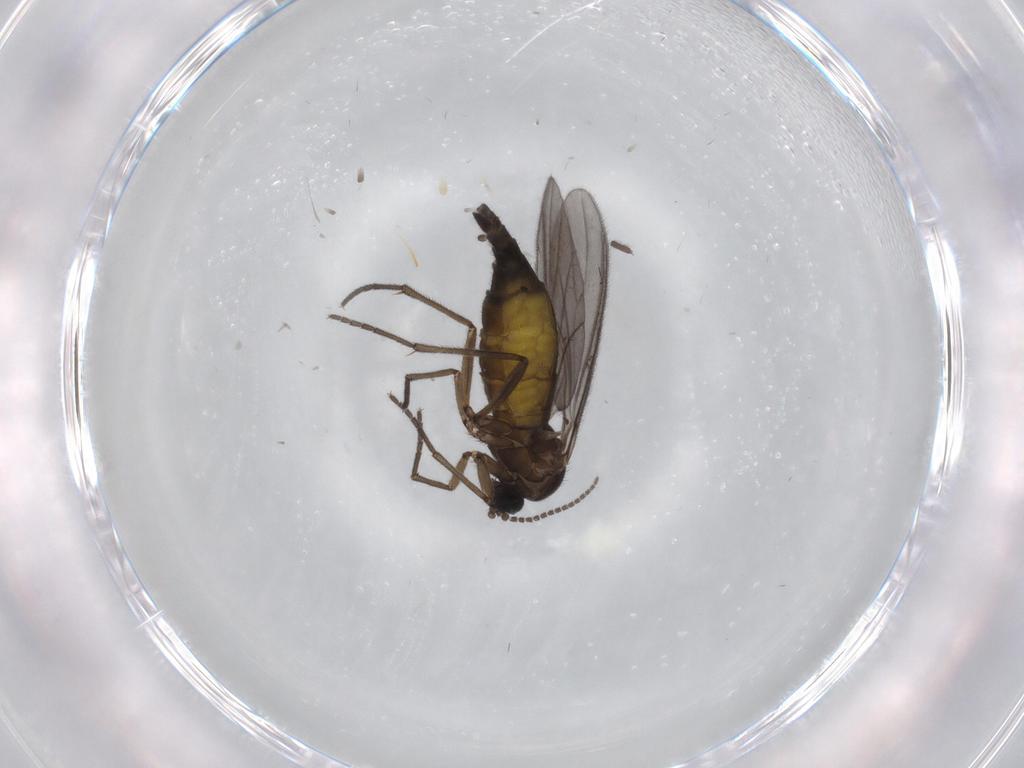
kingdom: Animalia
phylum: Arthropoda
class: Insecta
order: Diptera
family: Sciaridae
